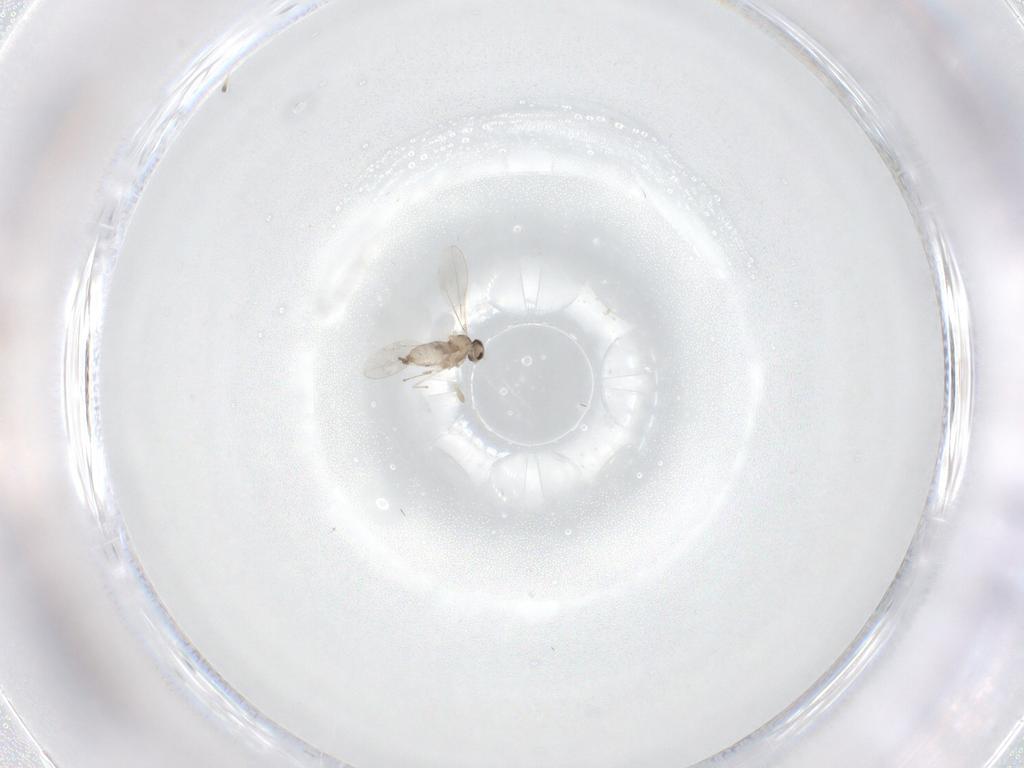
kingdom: Animalia
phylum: Arthropoda
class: Insecta
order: Diptera
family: Cecidomyiidae
